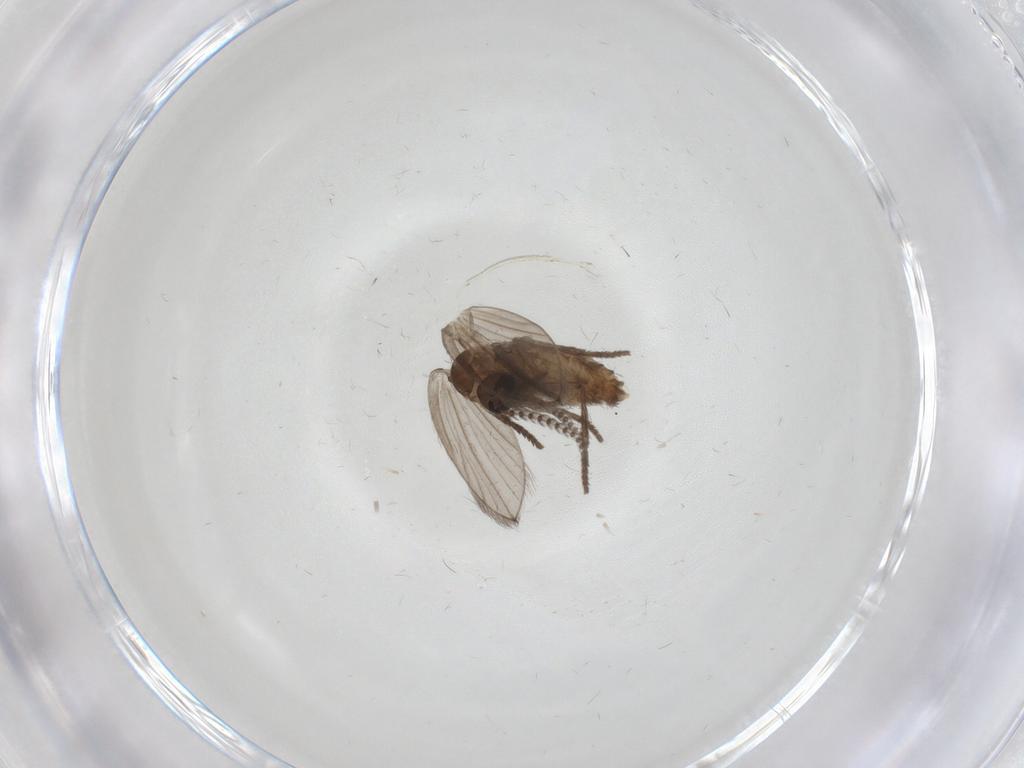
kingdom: Animalia
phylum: Arthropoda
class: Insecta
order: Diptera
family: Psychodidae
